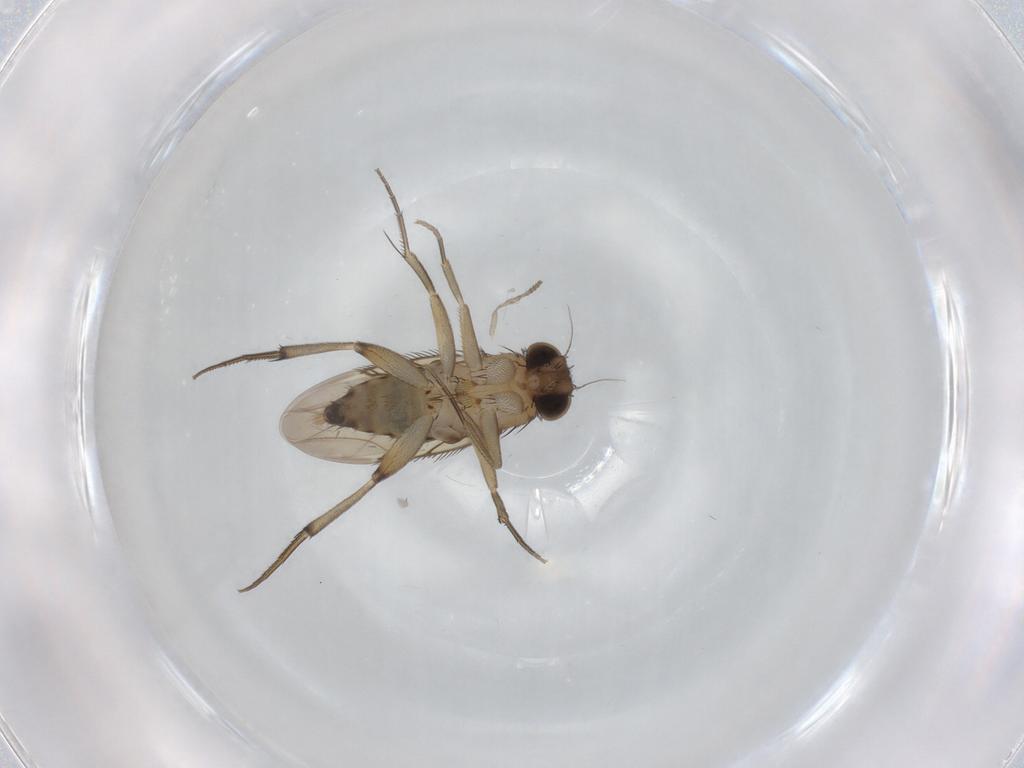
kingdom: Animalia
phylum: Arthropoda
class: Insecta
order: Diptera
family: Phoridae
